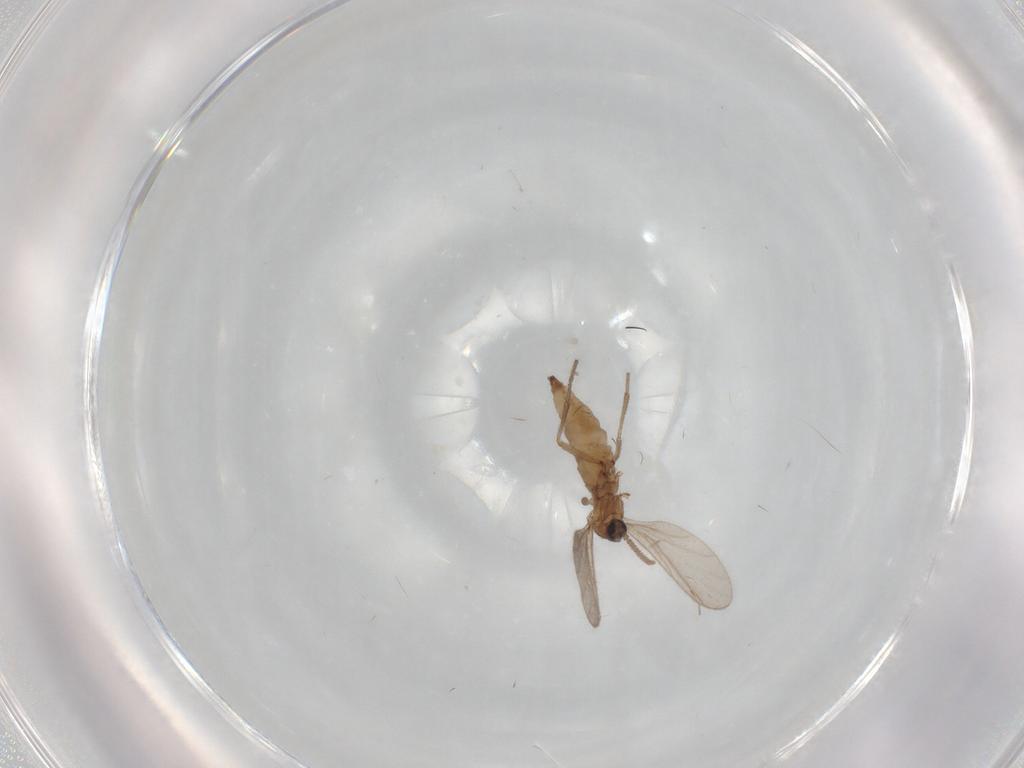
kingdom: Animalia
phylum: Arthropoda
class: Insecta
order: Diptera
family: Sciaridae
